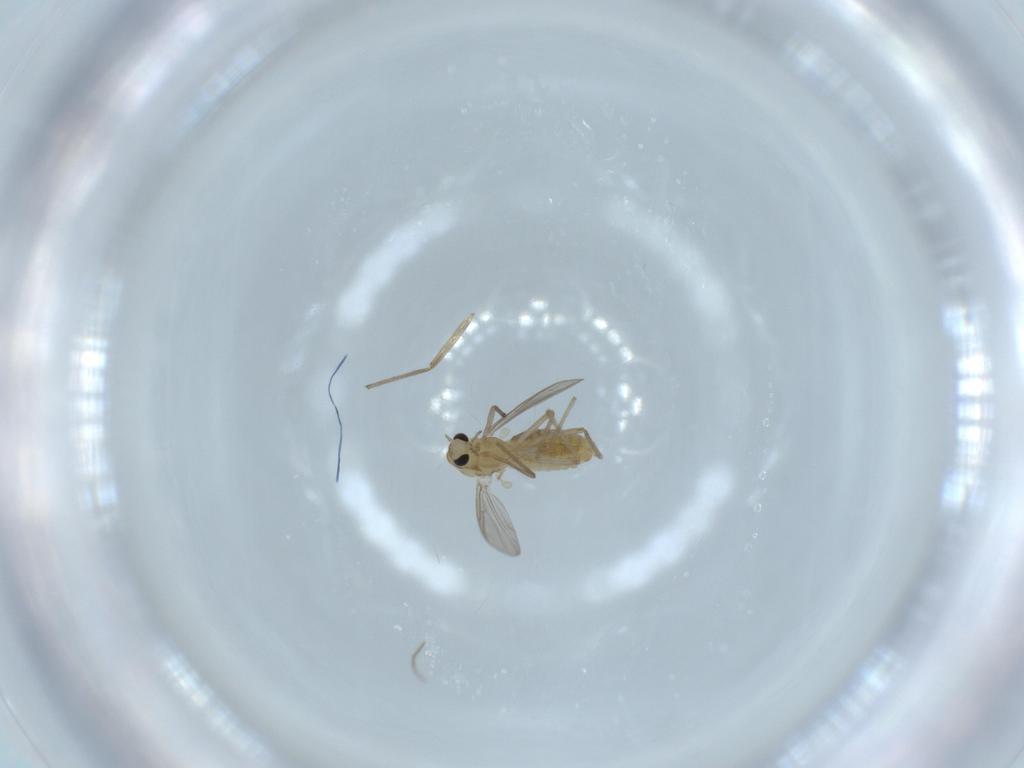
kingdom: Animalia
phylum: Arthropoda
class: Insecta
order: Diptera
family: Chironomidae
